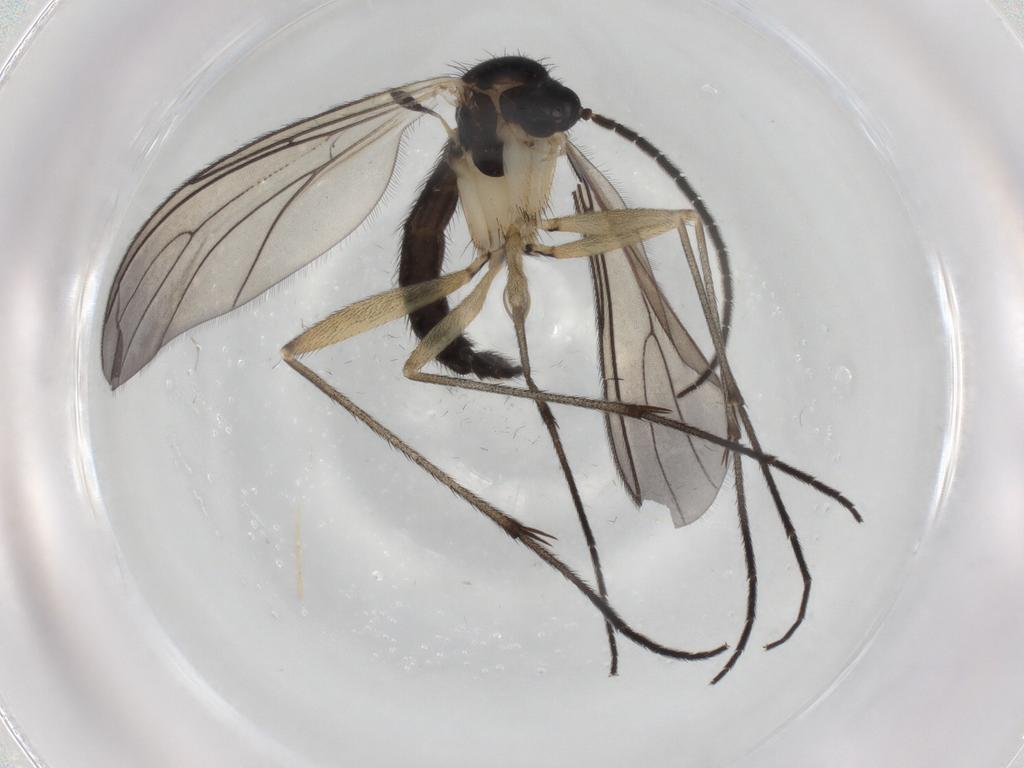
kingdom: Animalia
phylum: Arthropoda
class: Insecta
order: Diptera
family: Sciaridae
